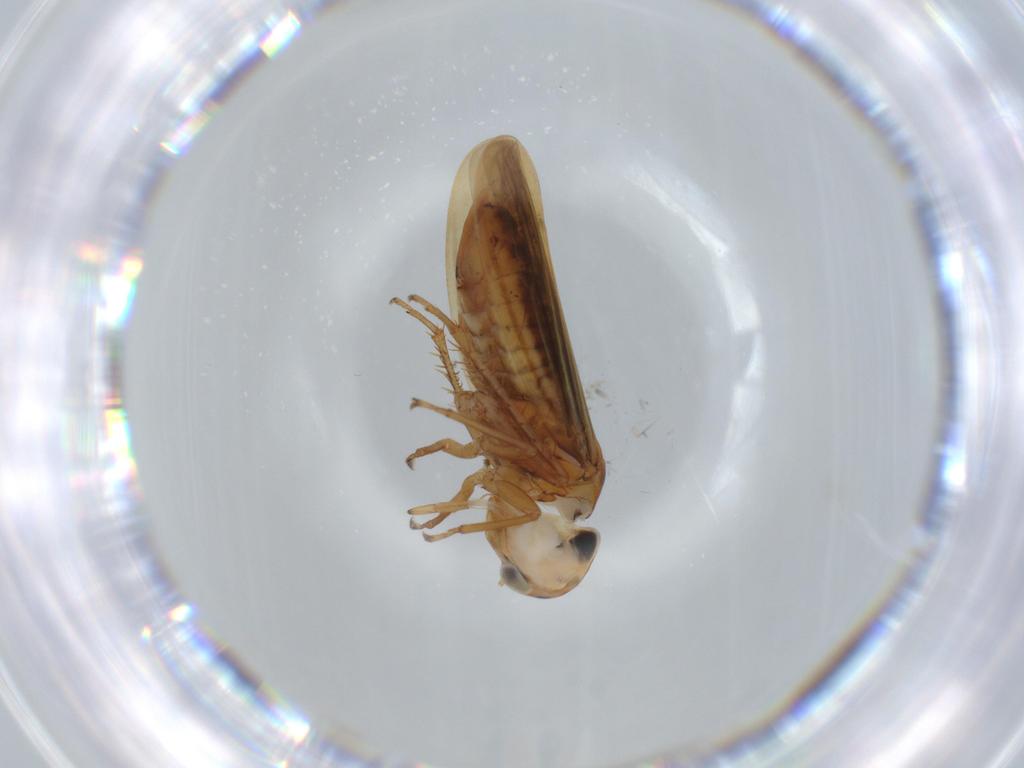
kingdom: Animalia
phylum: Arthropoda
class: Insecta
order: Hemiptera
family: Cicadellidae
